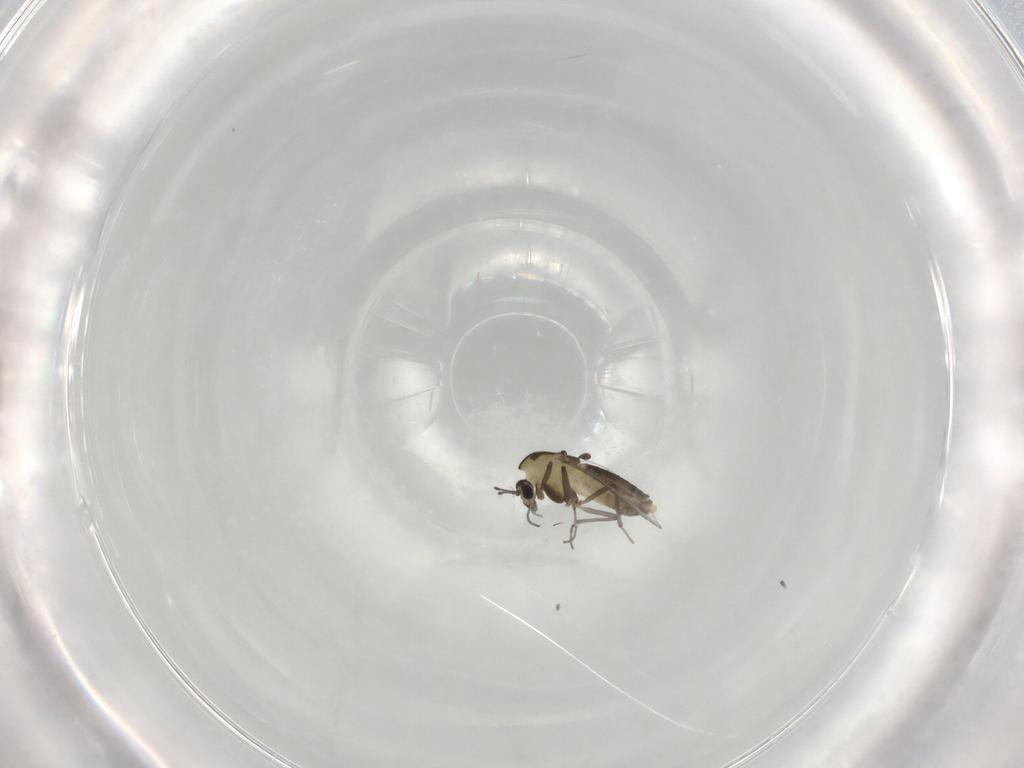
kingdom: Animalia
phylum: Arthropoda
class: Insecta
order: Diptera
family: Chironomidae
